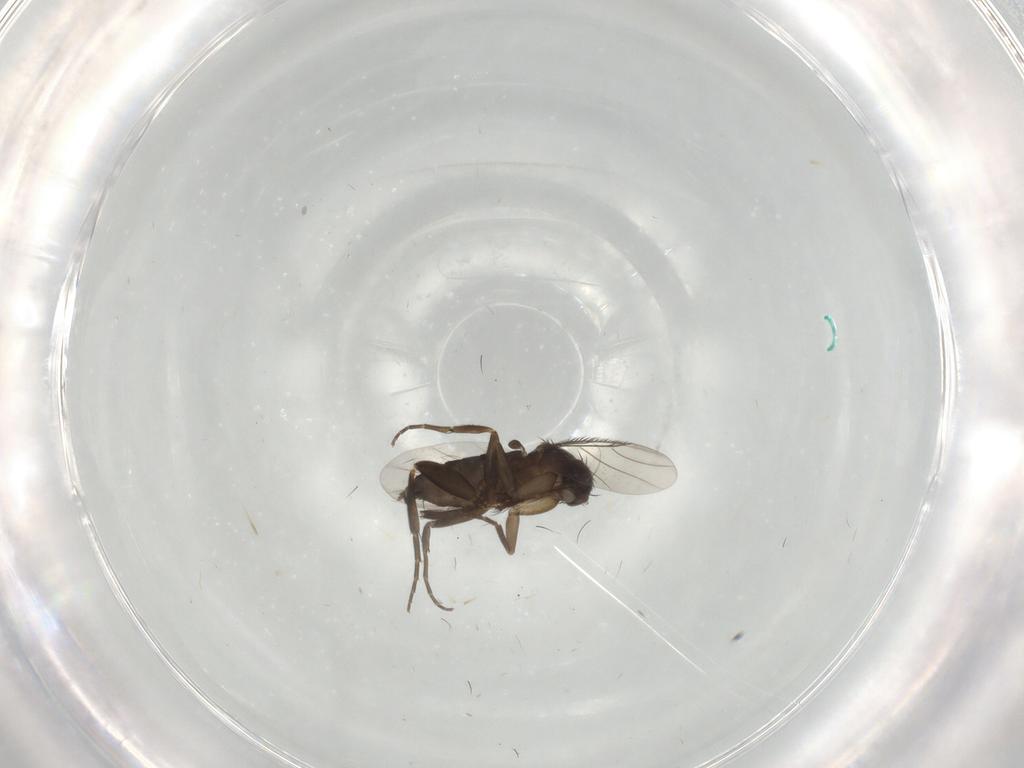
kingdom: Animalia
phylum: Arthropoda
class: Insecta
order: Diptera
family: Phoridae
